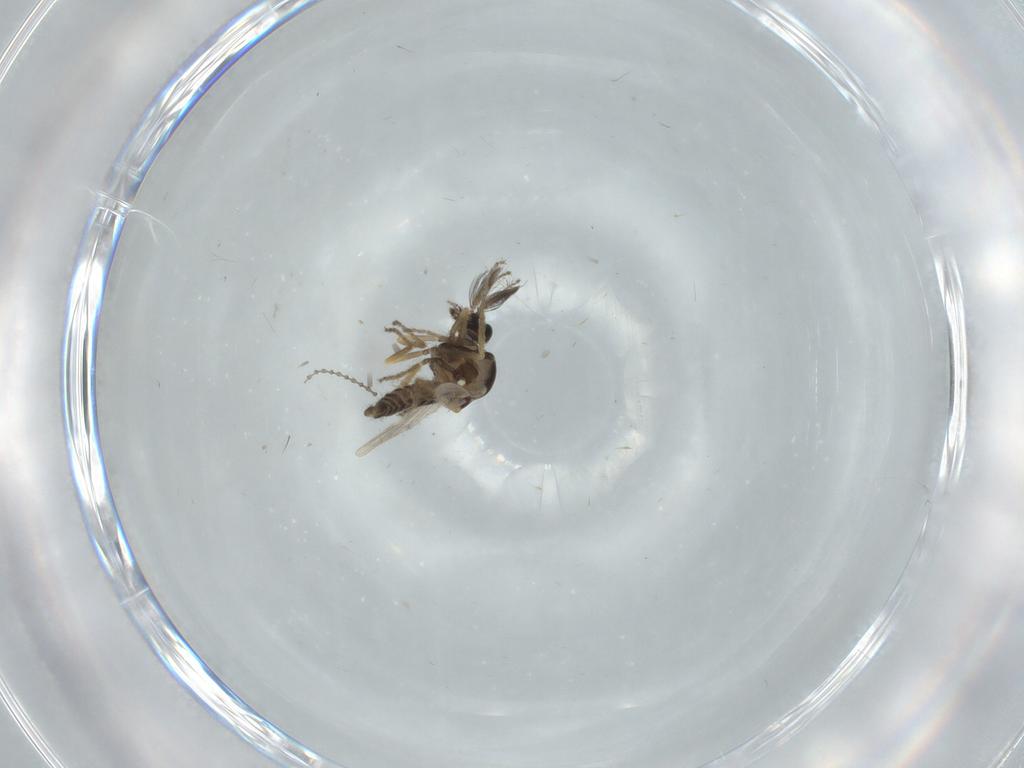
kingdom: Animalia
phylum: Arthropoda
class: Insecta
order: Diptera
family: Ceratopogonidae
